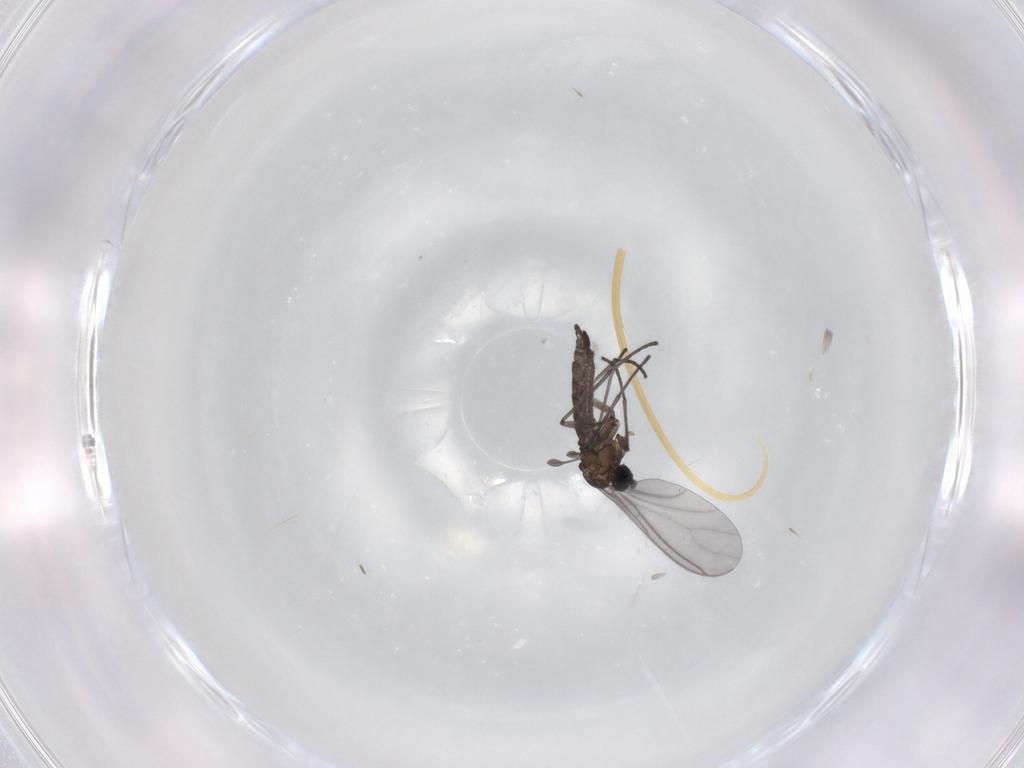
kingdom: Animalia
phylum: Arthropoda
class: Insecta
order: Diptera
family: Sciaridae
